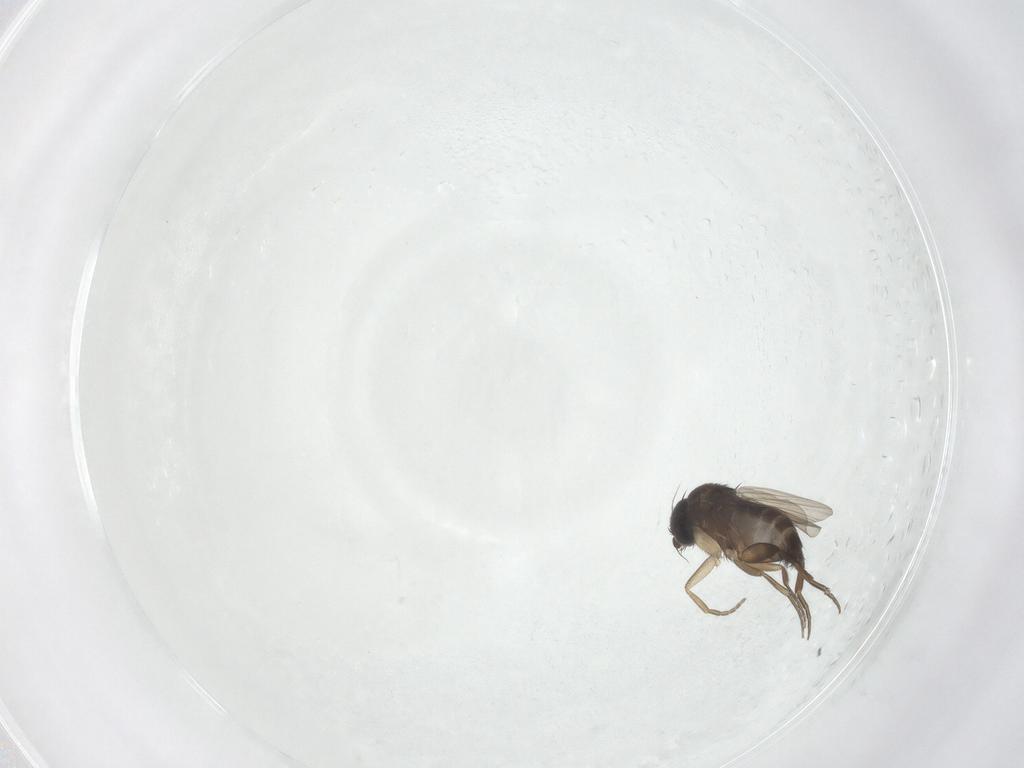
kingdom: Animalia
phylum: Arthropoda
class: Insecta
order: Diptera
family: Phoridae
